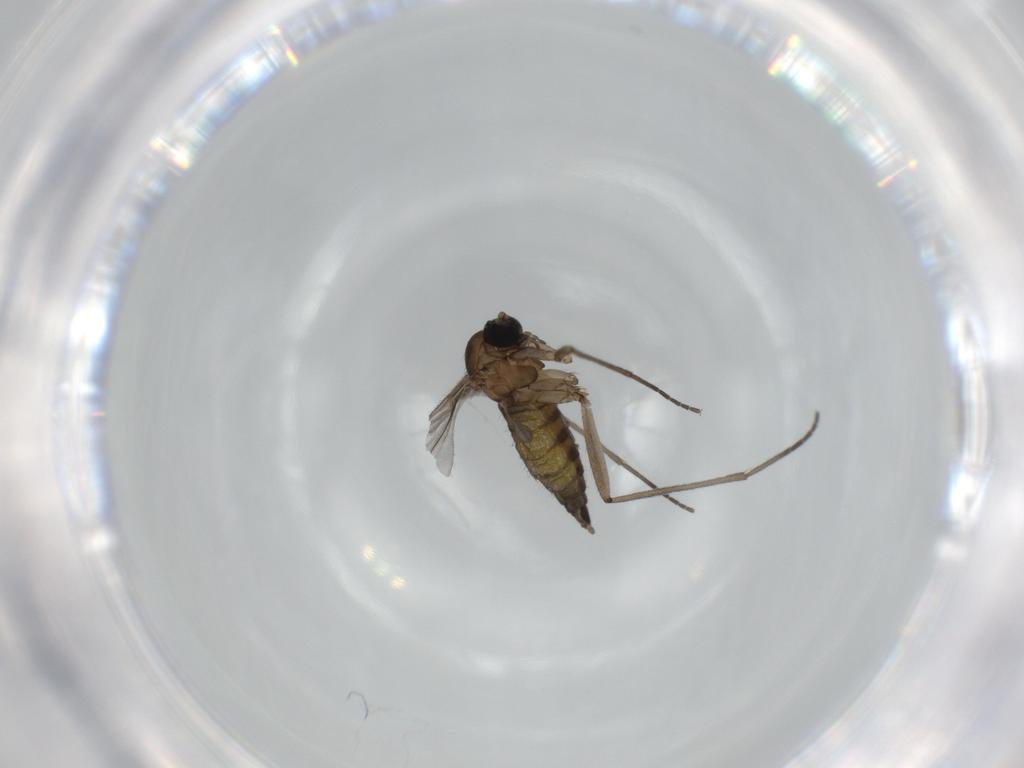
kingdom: Animalia
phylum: Arthropoda
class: Insecta
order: Diptera
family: Sciaridae
